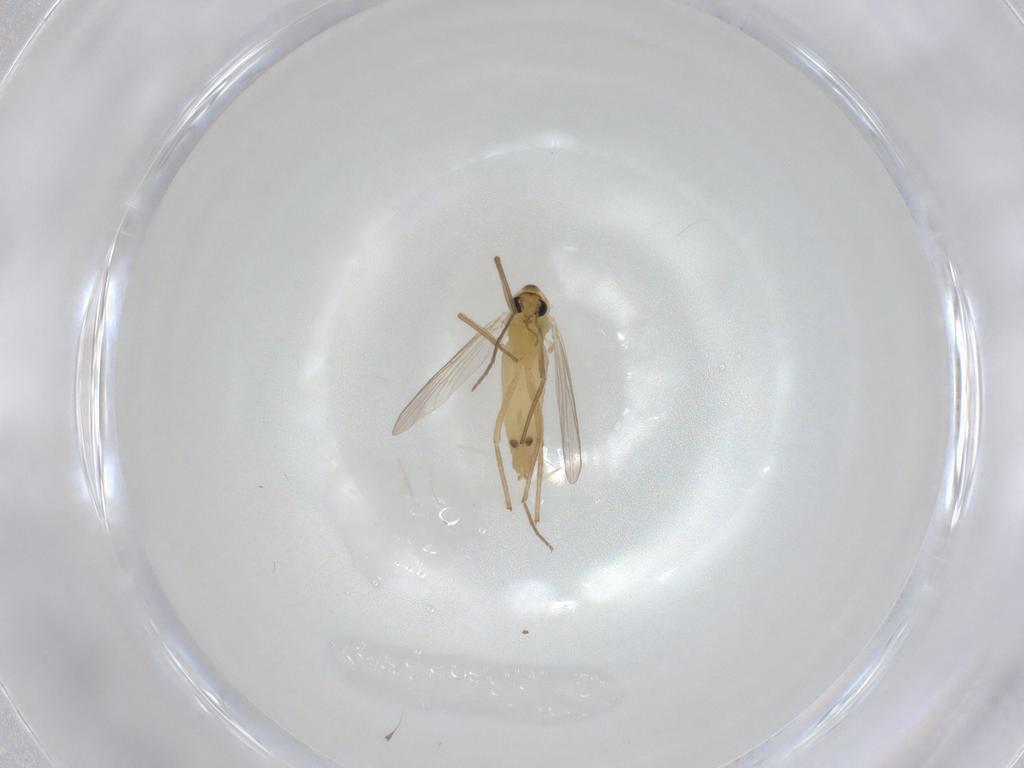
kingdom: Animalia
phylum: Arthropoda
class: Insecta
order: Diptera
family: Chironomidae
